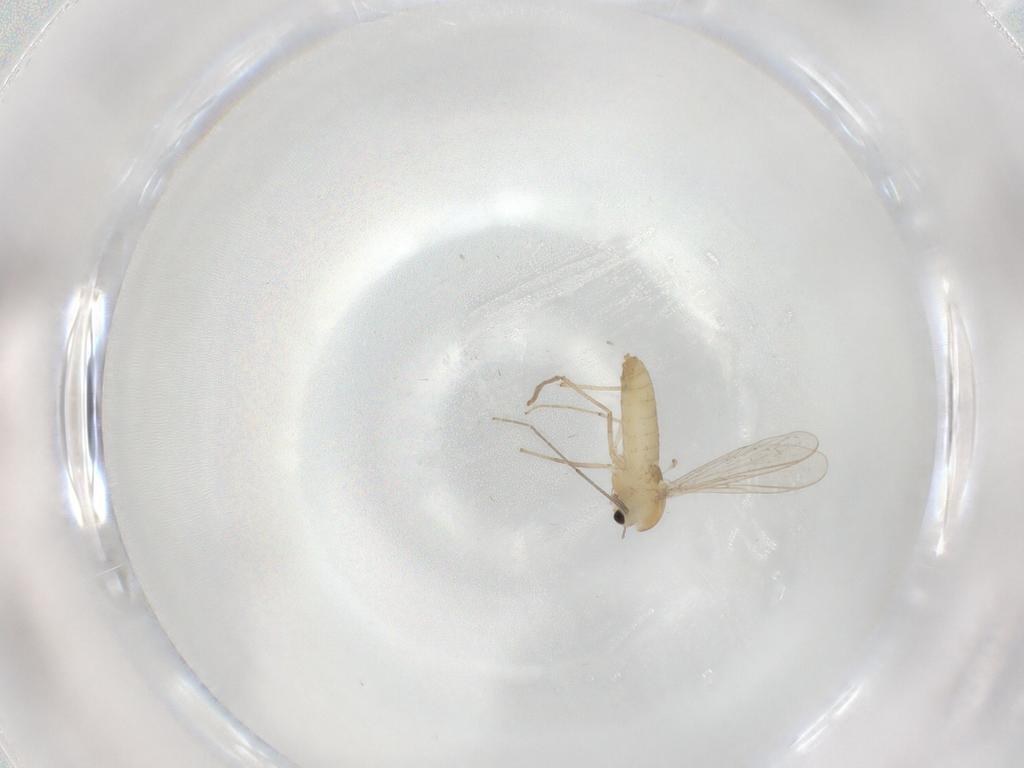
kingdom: Animalia
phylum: Arthropoda
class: Insecta
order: Diptera
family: Chironomidae
